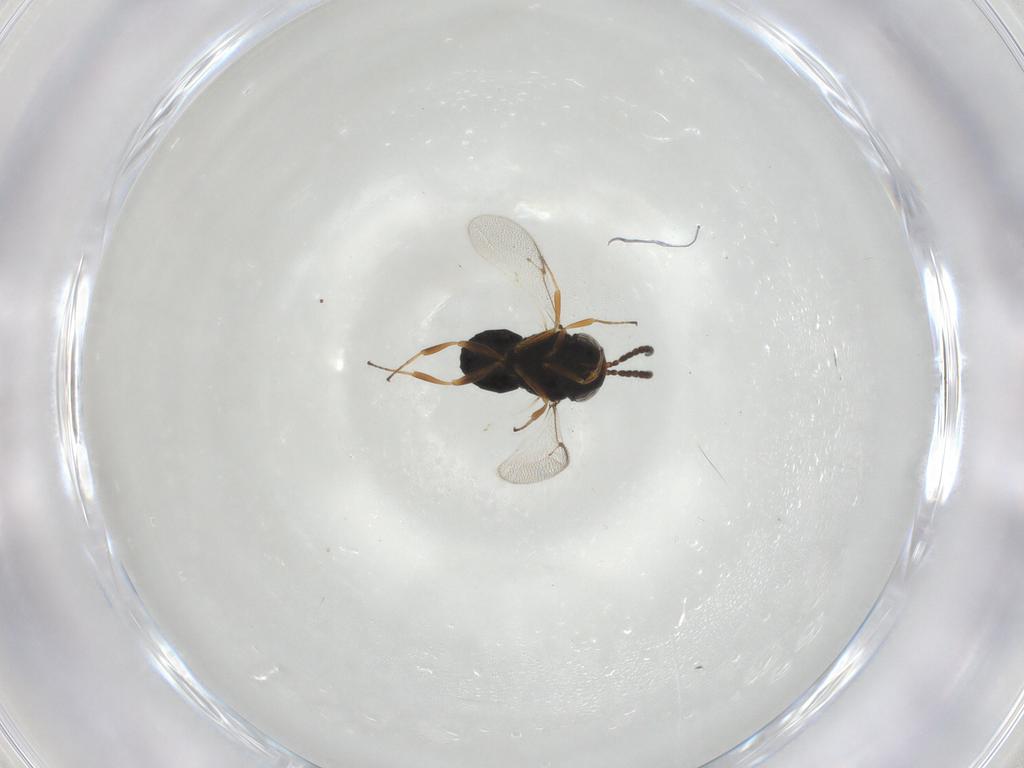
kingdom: Animalia
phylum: Arthropoda
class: Insecta
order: Hymenoptera
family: Scelionidae
